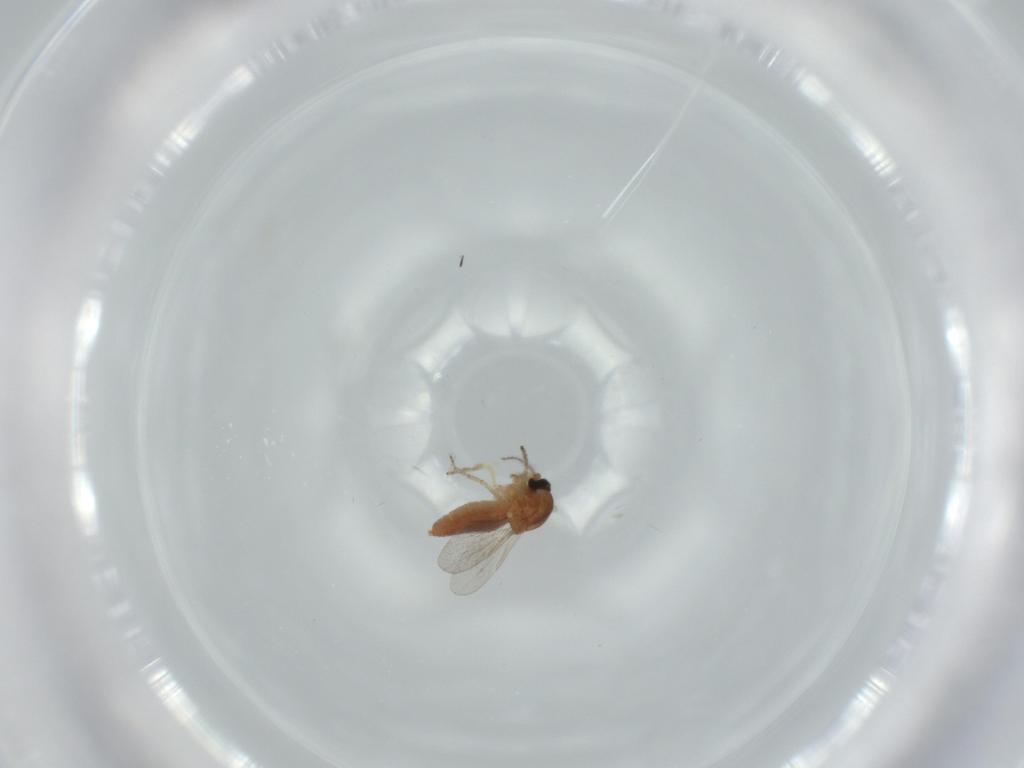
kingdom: Animalia
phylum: Arthropoda
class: Insecta
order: Diptera
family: Ceratopogonidae
